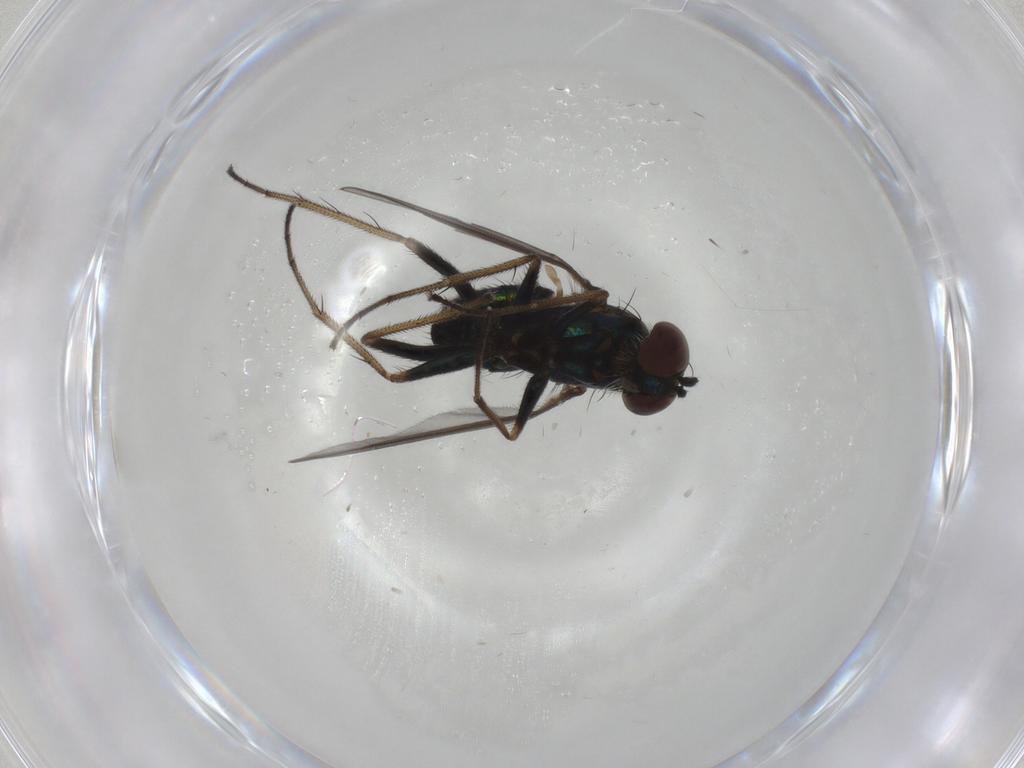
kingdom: Animalia
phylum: Arthropoda
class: Insecta
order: Diptera
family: Dolichopodidae
